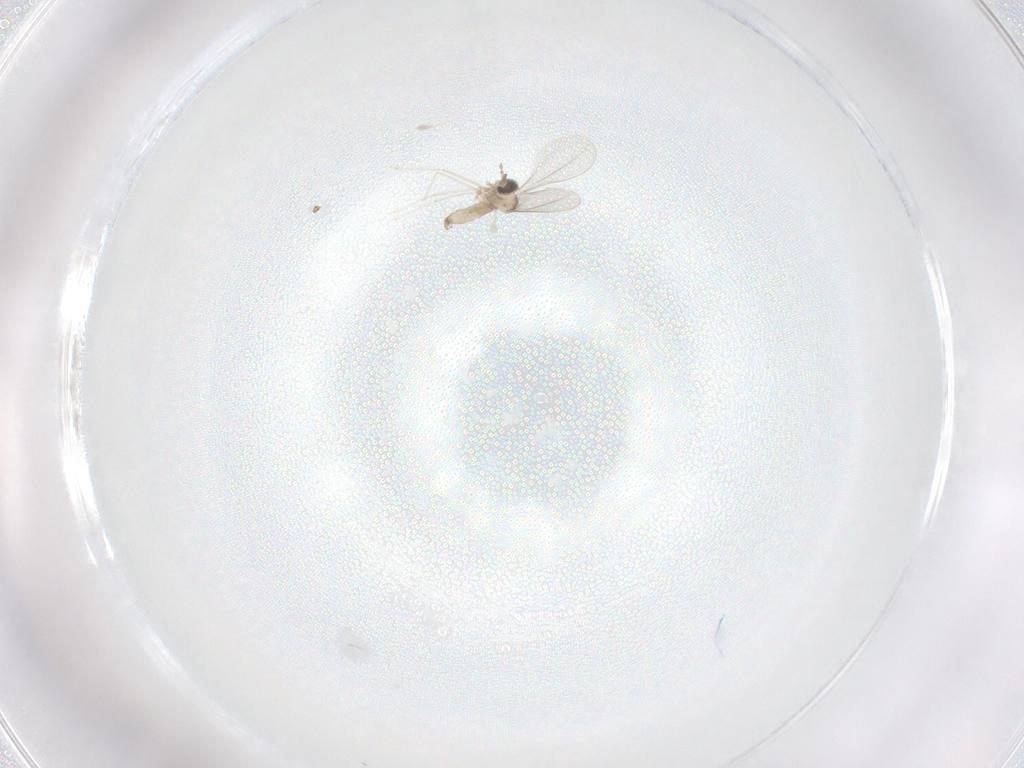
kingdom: Animalia
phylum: Arthropoda
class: Insecta
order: Diptera
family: Limoniidae
